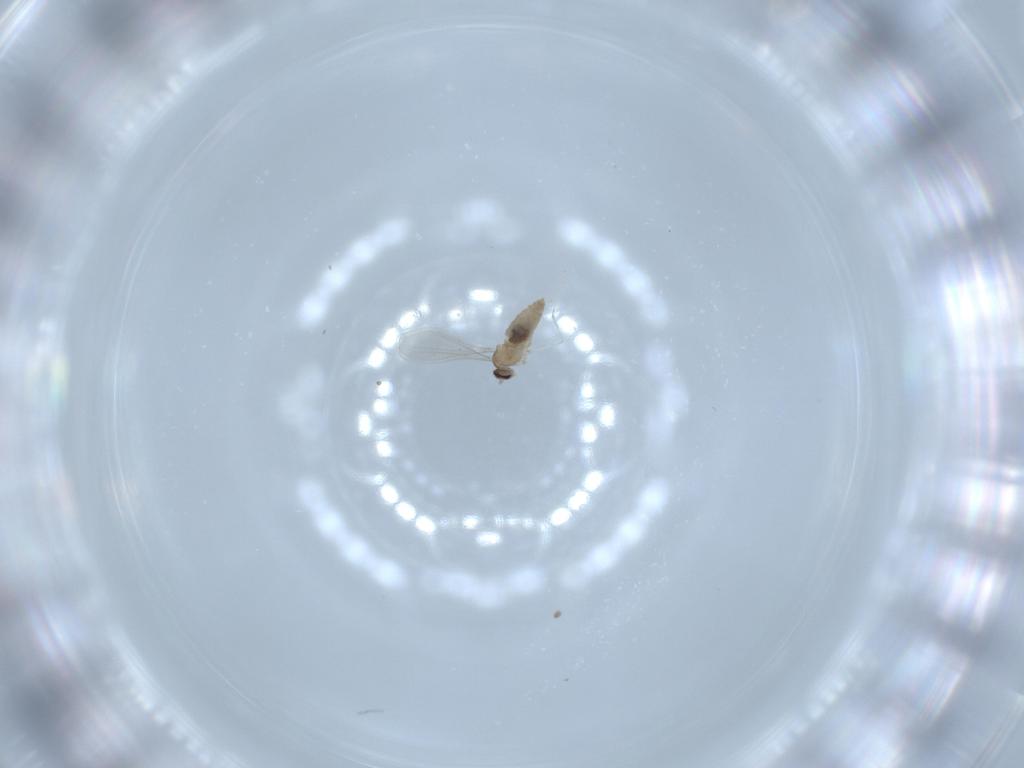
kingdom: Animalia
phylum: Arthropoda
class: Insecta
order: Diptera
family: Cecidomyiidae
